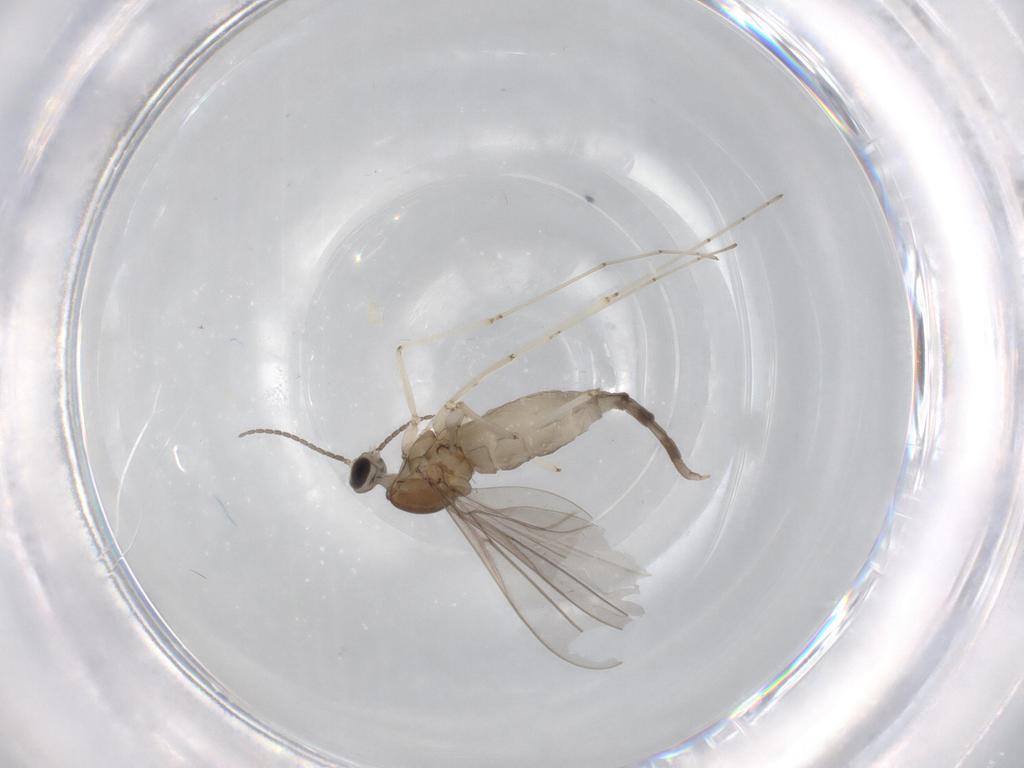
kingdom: Animalia
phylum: Arthropoda
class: Insecta
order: Diptera
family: Cecidomyiidae
